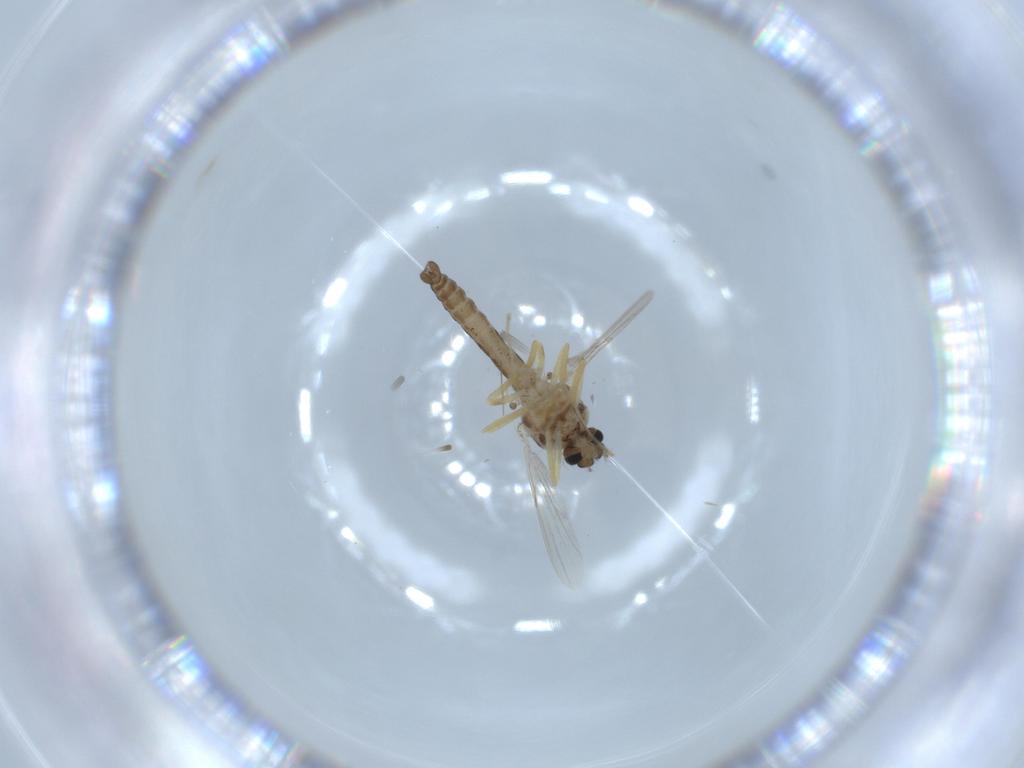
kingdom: Animalia
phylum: Arthropoda
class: Insecta
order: Diptera
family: Ceratopogonidae
